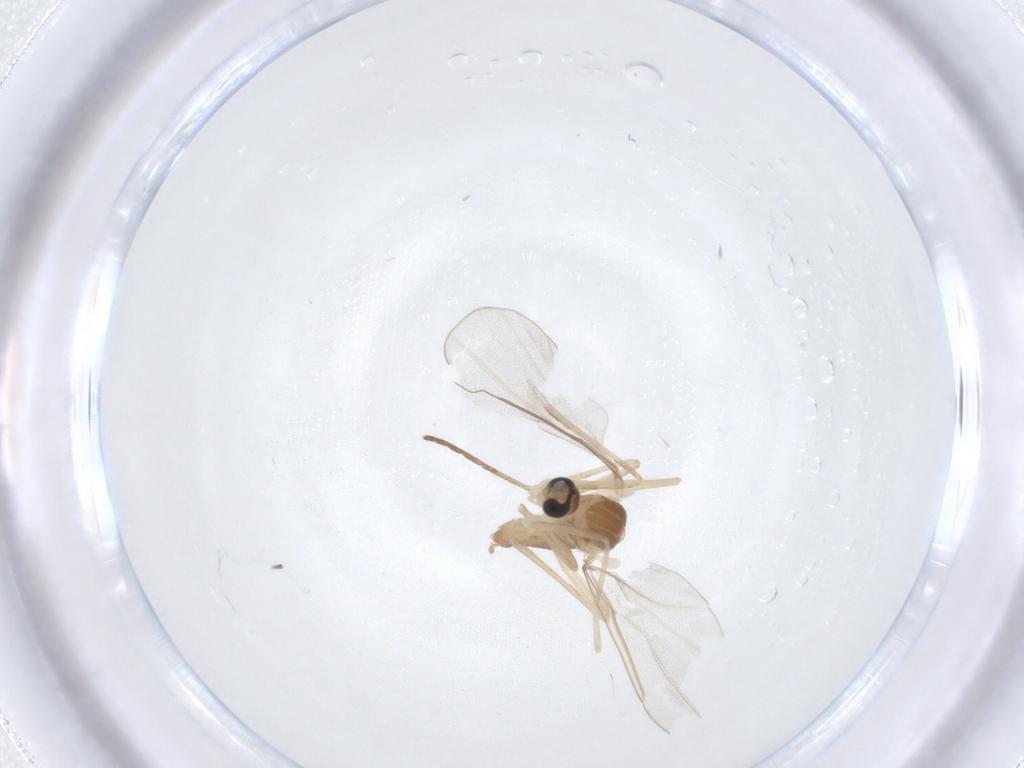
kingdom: Animalia
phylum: Arthropoda
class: Insecta
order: Diptera
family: Cecidomyiidae
